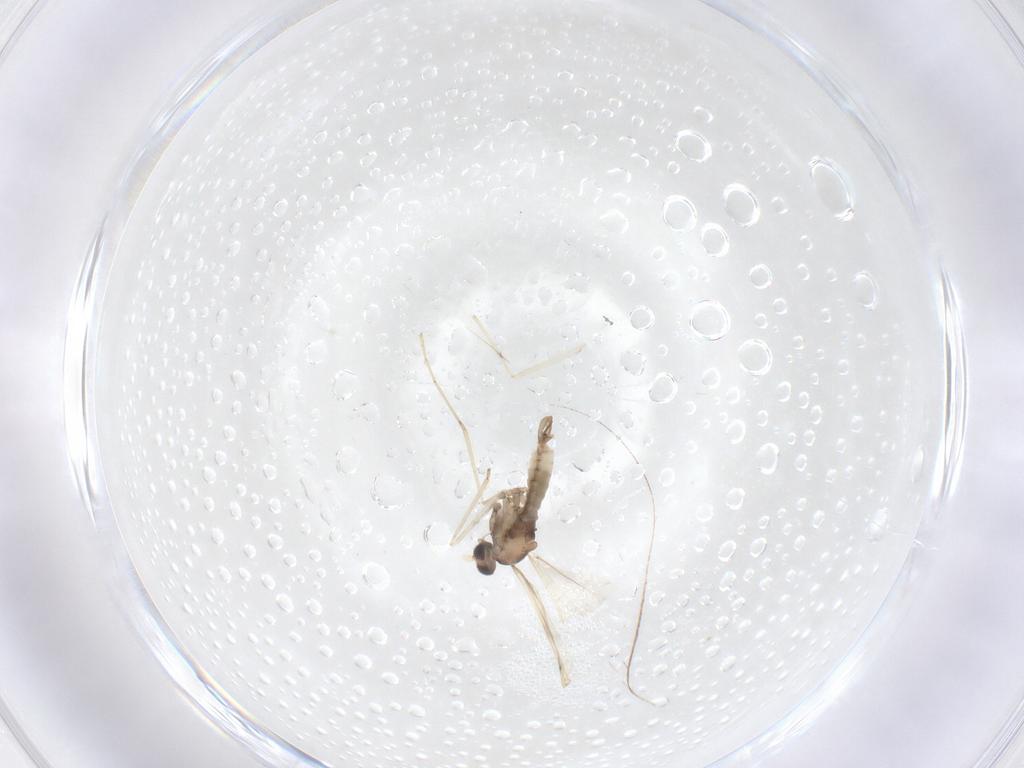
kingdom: Animalia
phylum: Arthropoda
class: Insecta
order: Diptera
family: Cecidomyiidae
